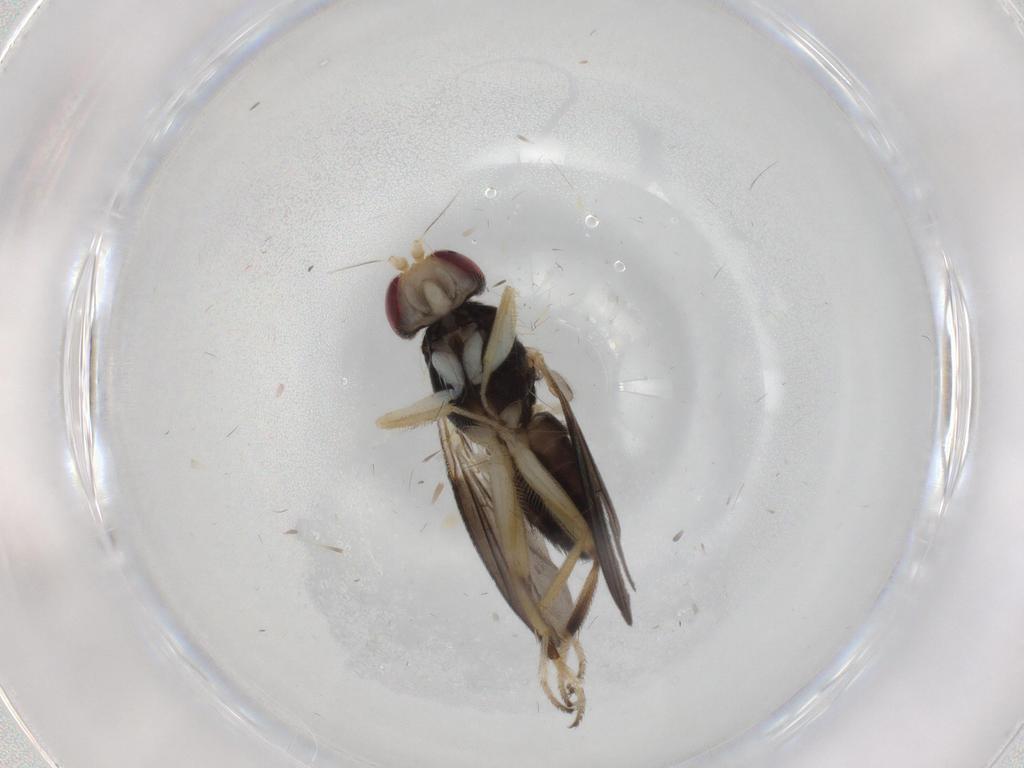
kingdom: Animalia
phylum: Arthropoda
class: Insecta
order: Diptera
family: Clusiidae
